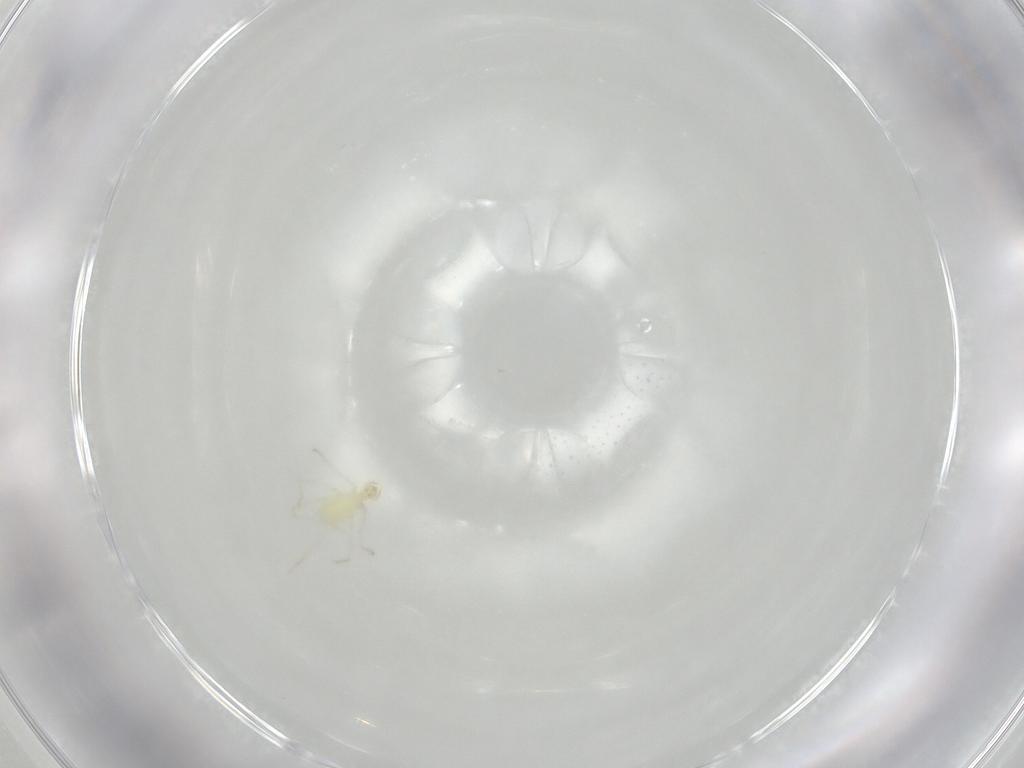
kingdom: Animalia
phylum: Arthropoda
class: Arachnida
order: Trombidiformes
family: Erythraeidae
